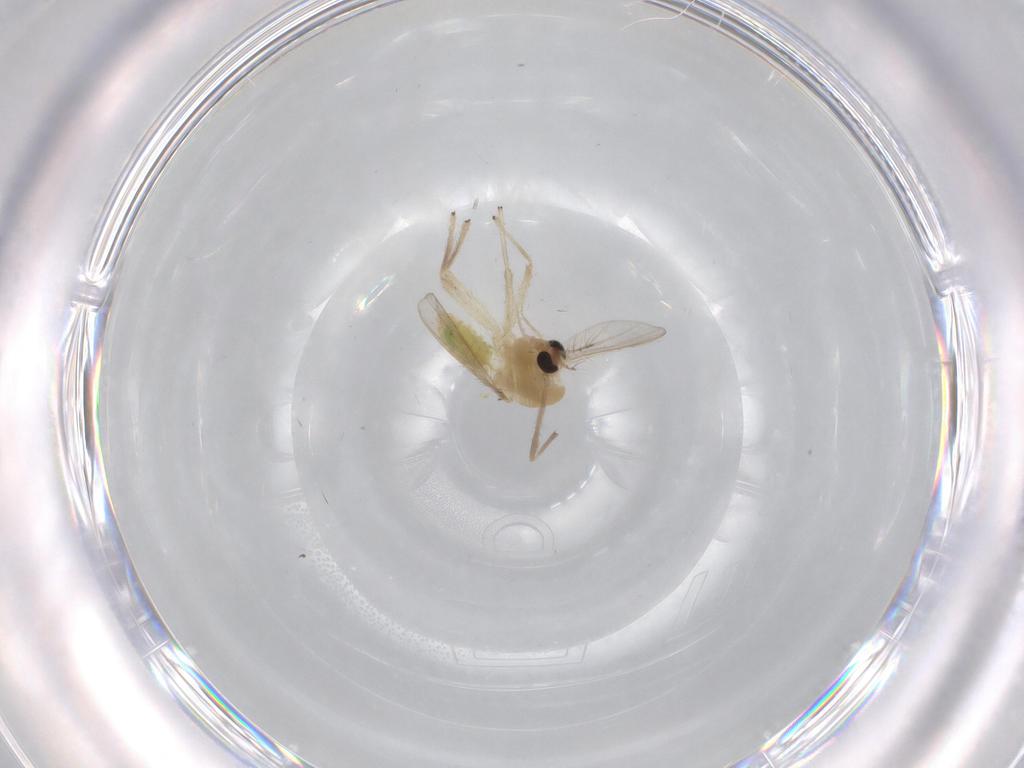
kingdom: Animalia
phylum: Arthropoda
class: Insecta
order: Diptera
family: Chironomidae
